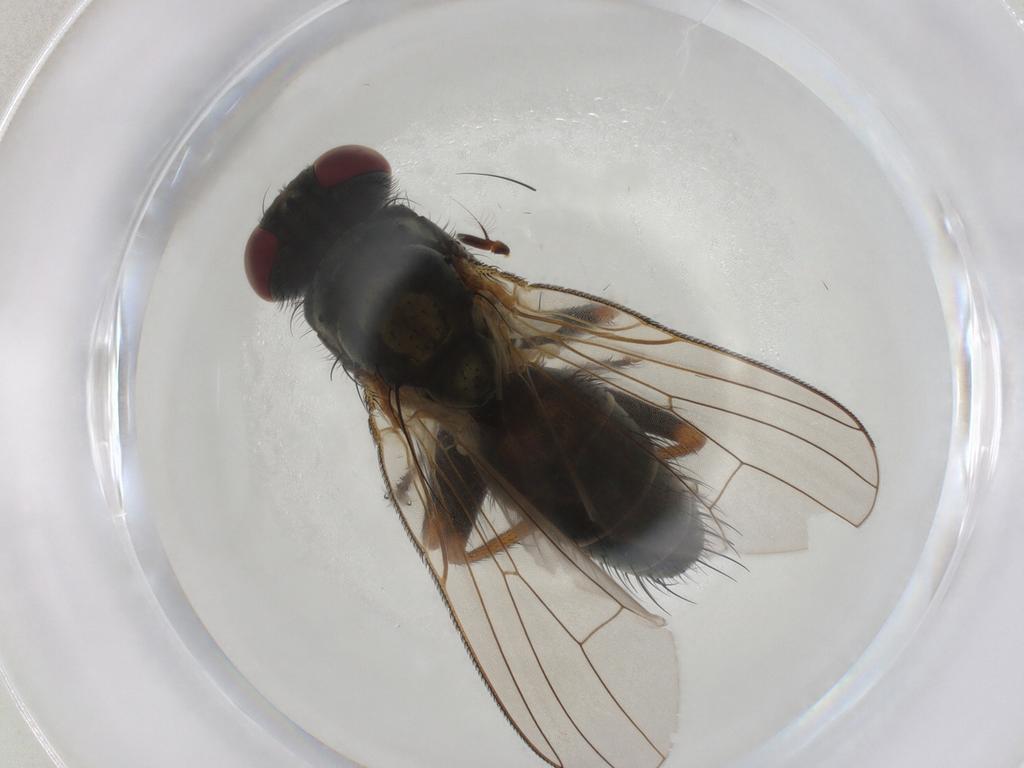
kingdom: Animalia
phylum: Arthropoda
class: Insecta
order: Diptera
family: Muscidae
